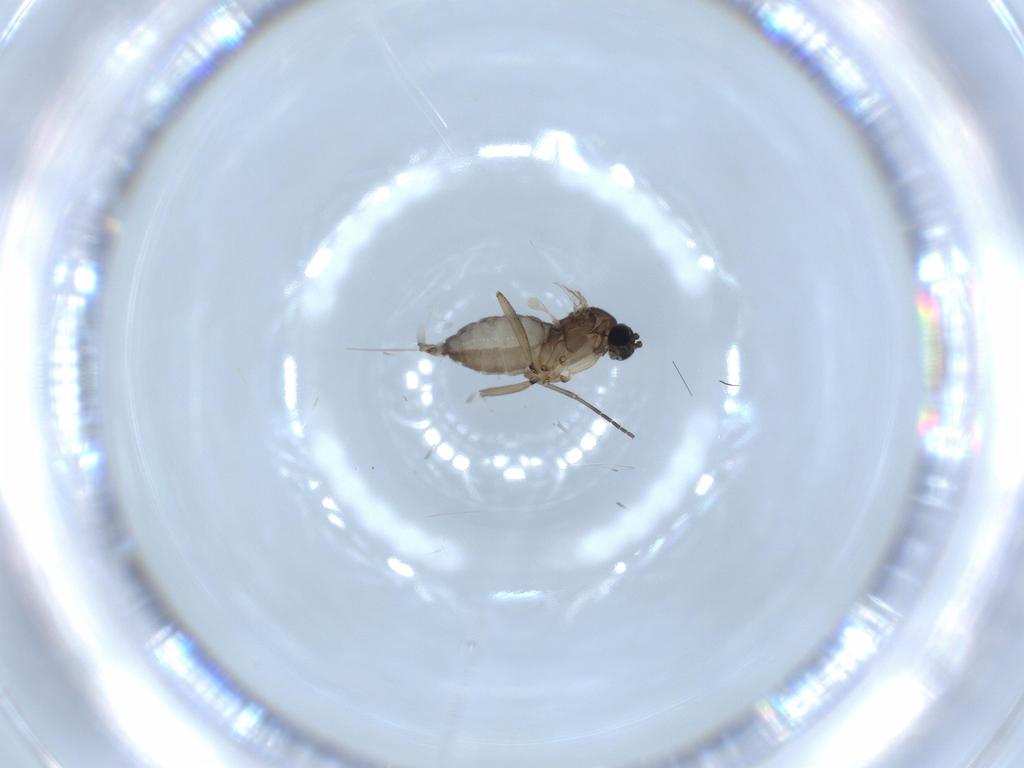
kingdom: Animalia
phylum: Arthropoda
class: Insecta
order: Diptera
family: Sciaridae
